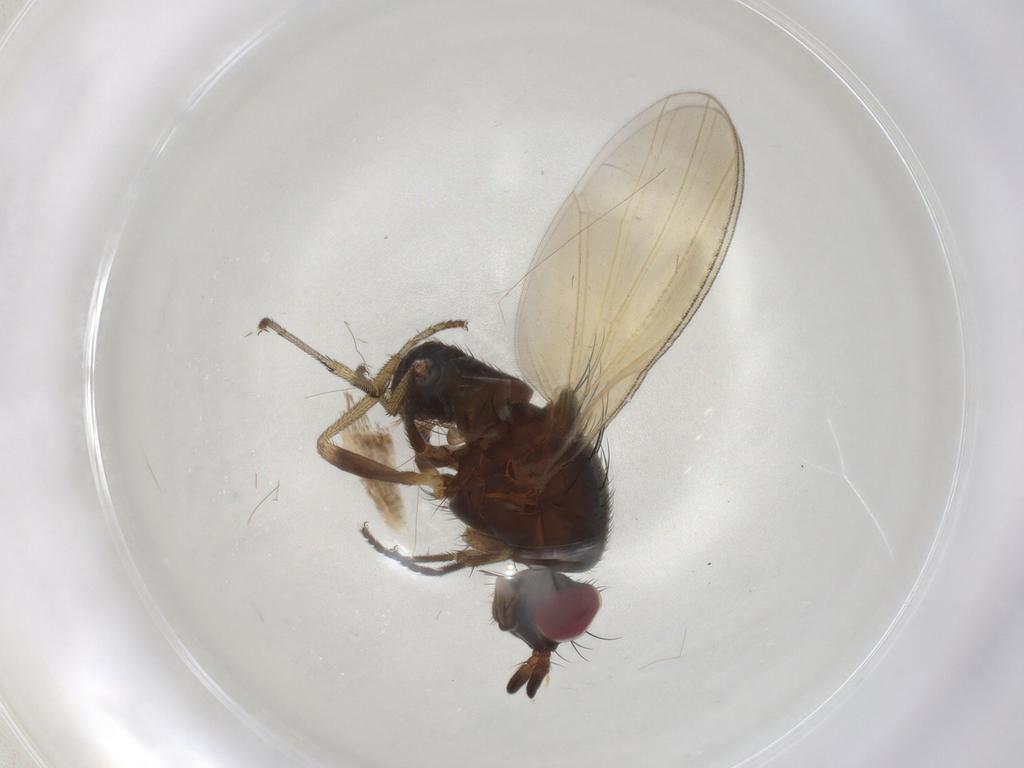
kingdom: Animalia
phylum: Arthropoda
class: Insecta
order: Diptera
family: Lauxaniidae
